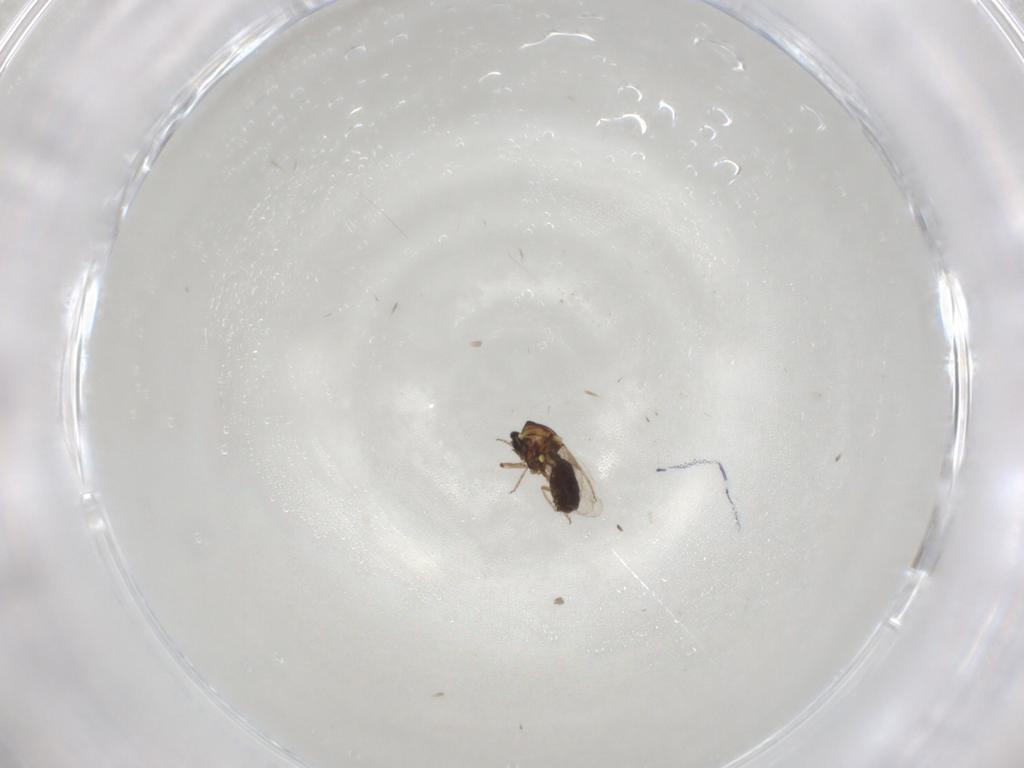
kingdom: Animalia
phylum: Arthropoda
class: Insecta
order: Diptera
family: Ceratopogonidae
